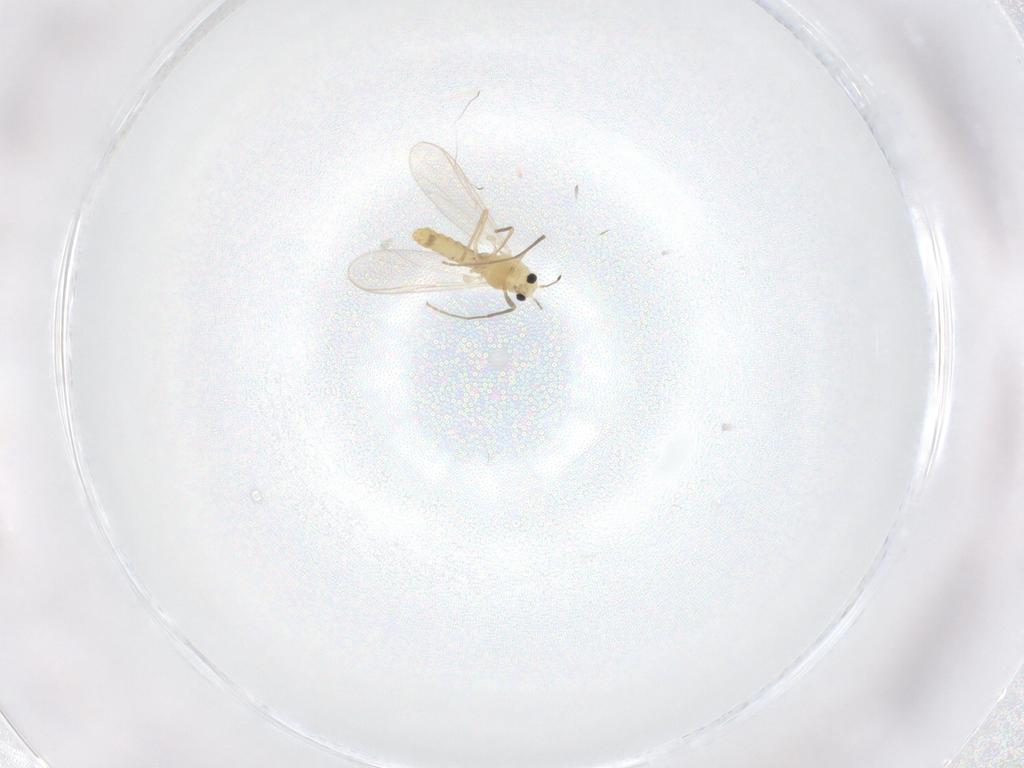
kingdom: Animalia
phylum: Arthropoda
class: Insecta
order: Diptera
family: Chironomidae
